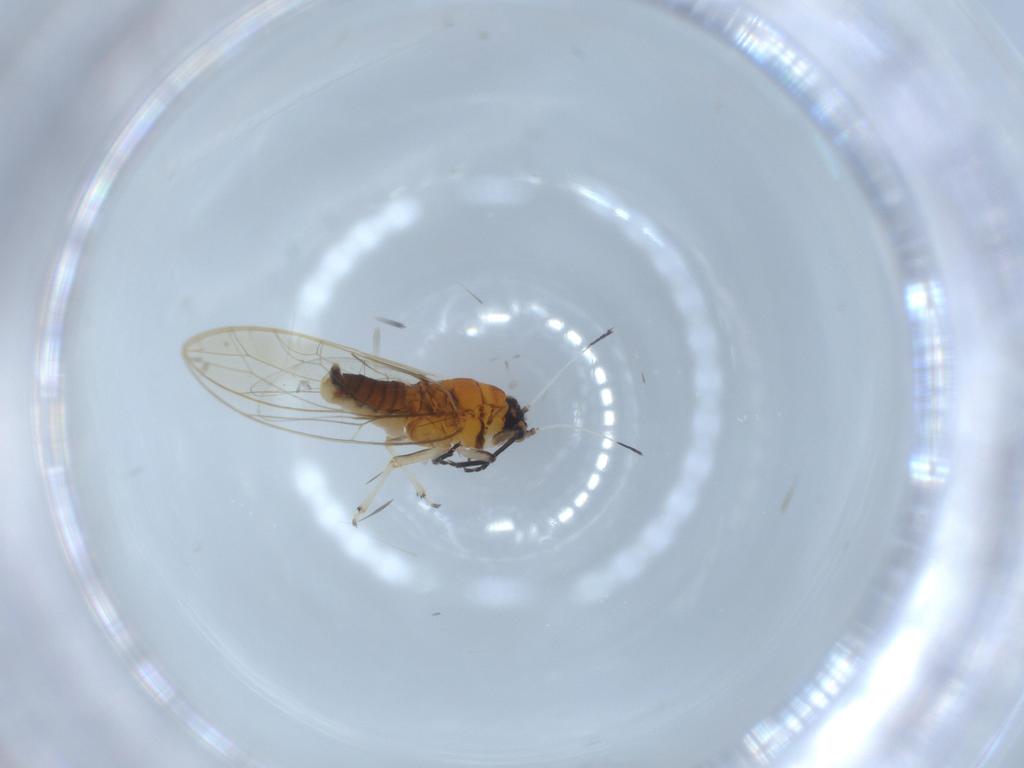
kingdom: Animalia
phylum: Arthropoda
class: Insecta
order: Hemiptera
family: Triozidae
